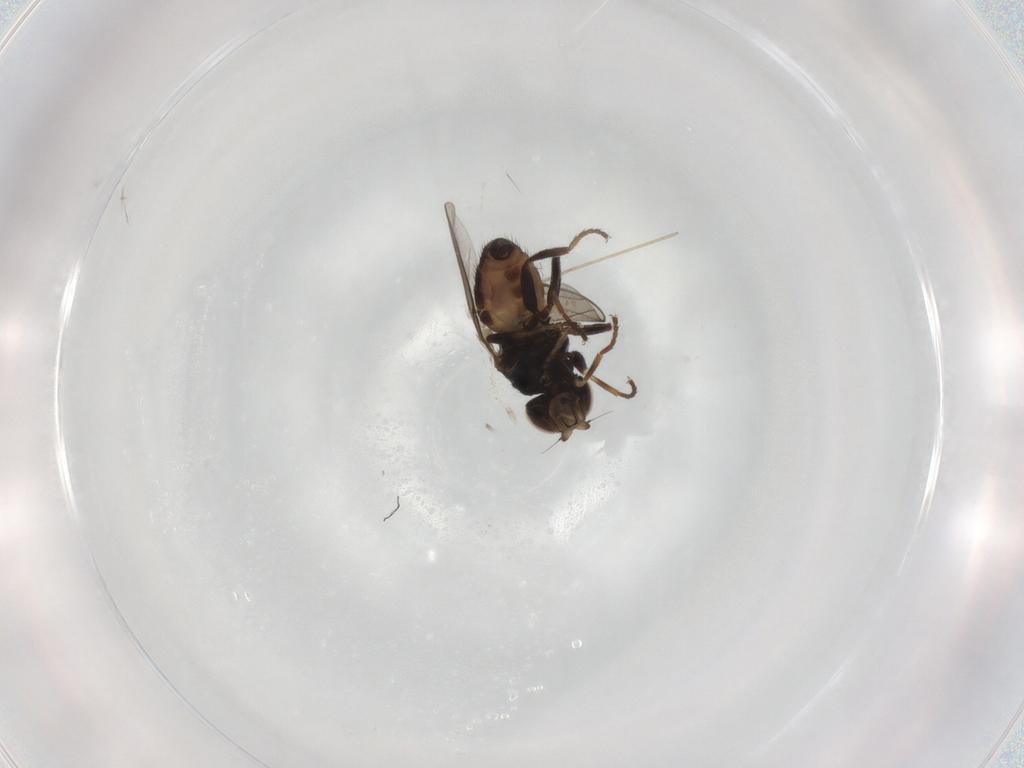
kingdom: Animalia
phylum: Arthropoda
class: Insecta
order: Diptera
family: Chloropidae
